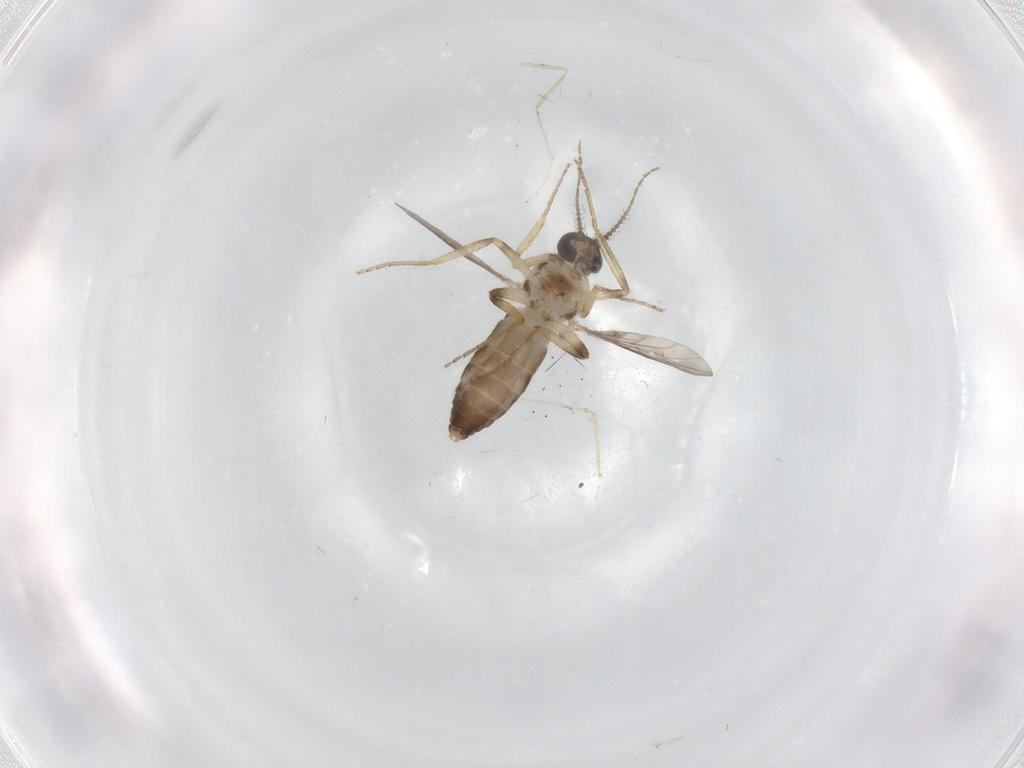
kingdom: Animalia
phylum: Arthropoda
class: Insecta
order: Diptera
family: Ceratopogonidae
